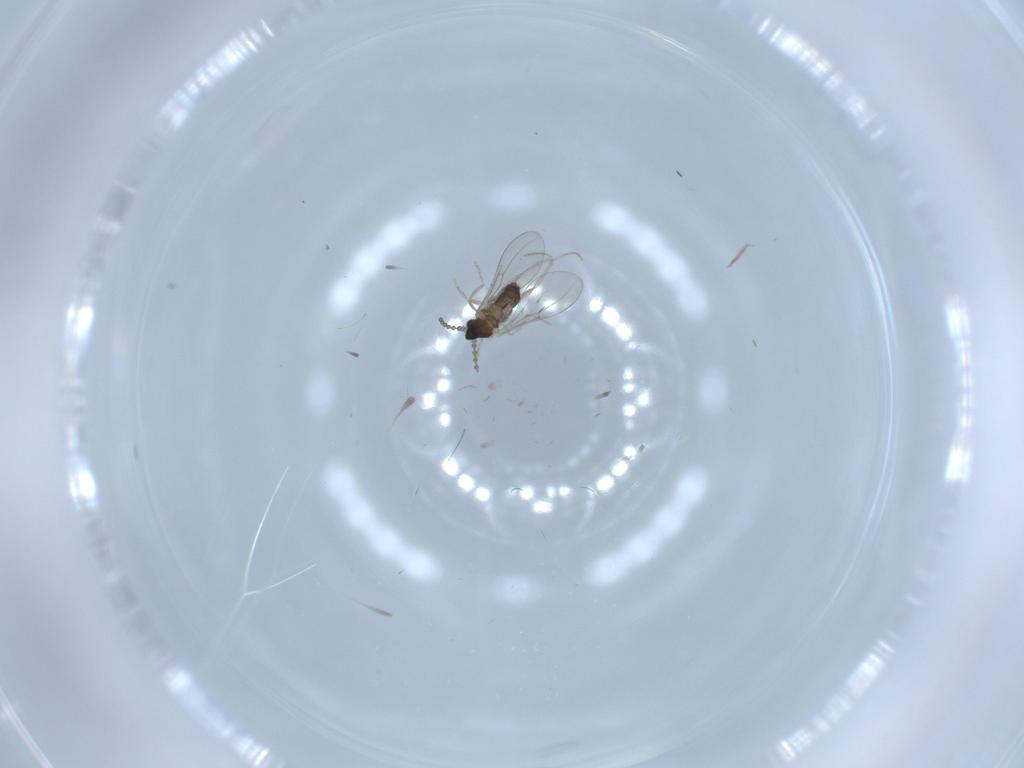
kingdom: Animalia
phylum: Arthropoda
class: Insecta
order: Diptera
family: Cecidomyiidae
